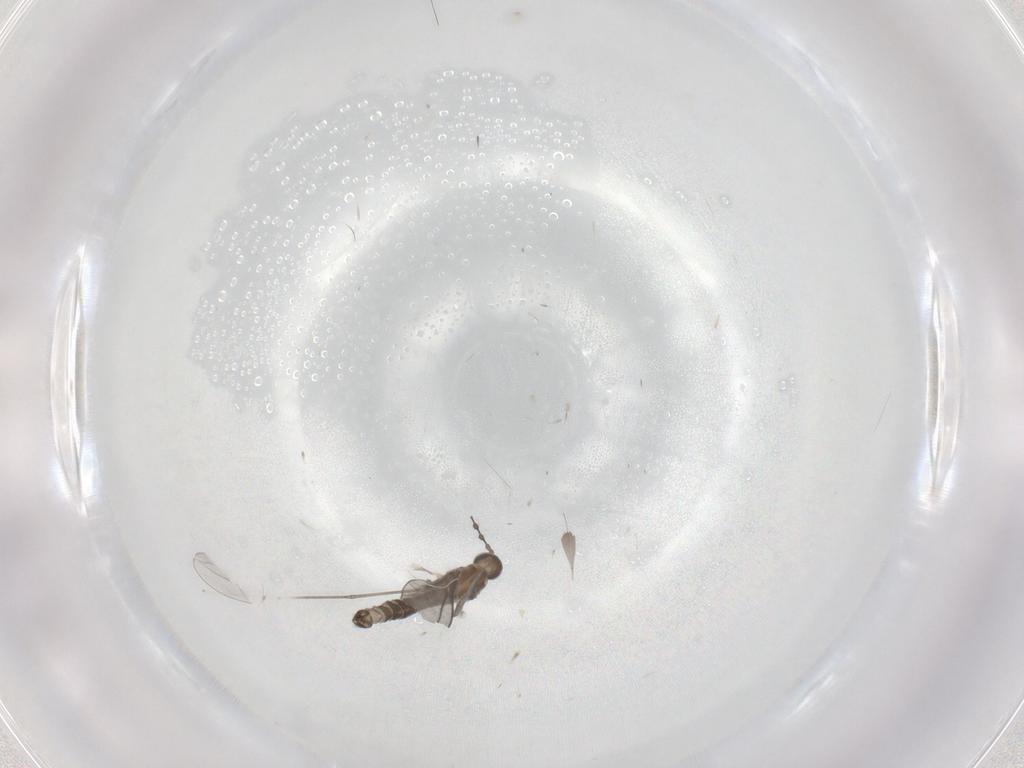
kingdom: Animalia
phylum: Arthropoda
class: Insecta
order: Diptera
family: Cecidomyiidae
